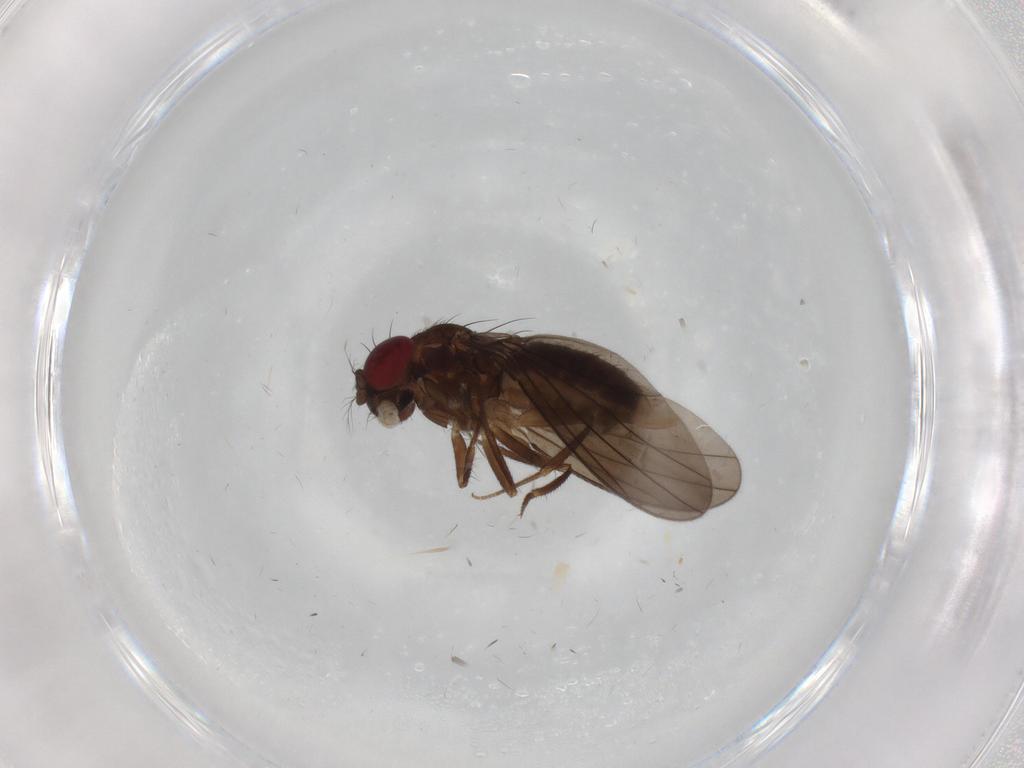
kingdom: Animalia
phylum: Arthropoda
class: Insecta
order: Diptera
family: Drosophilidae
